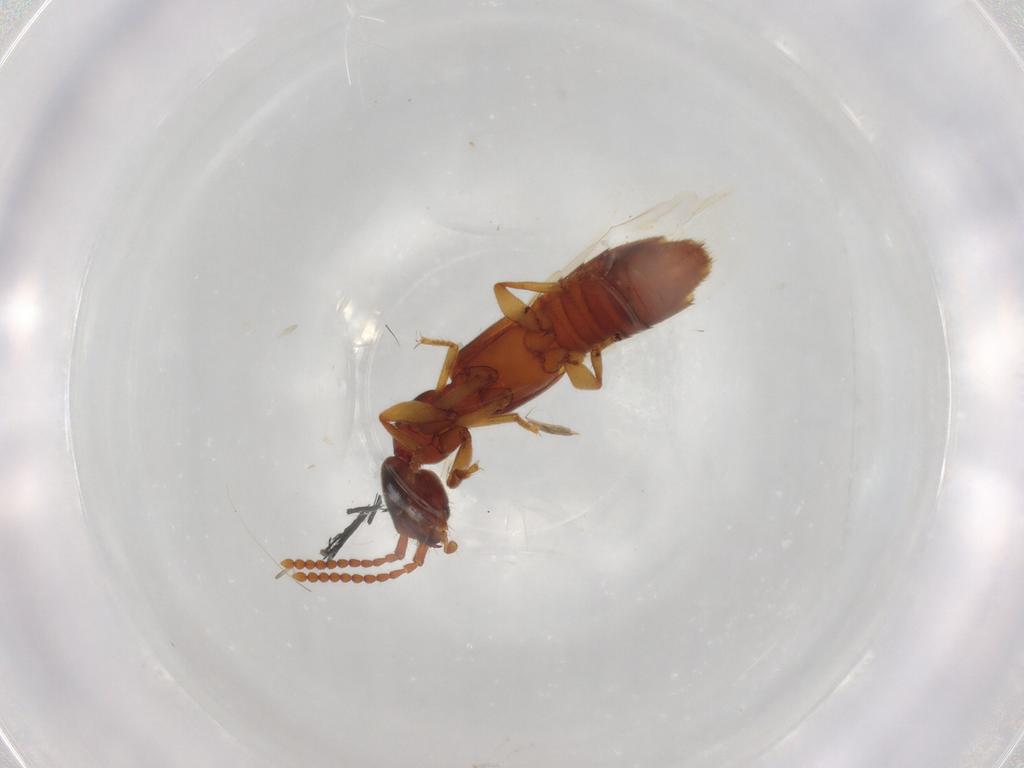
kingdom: Animalia
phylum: Arthropoda
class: Insecta
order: Coleoptera
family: Staphylinidae
